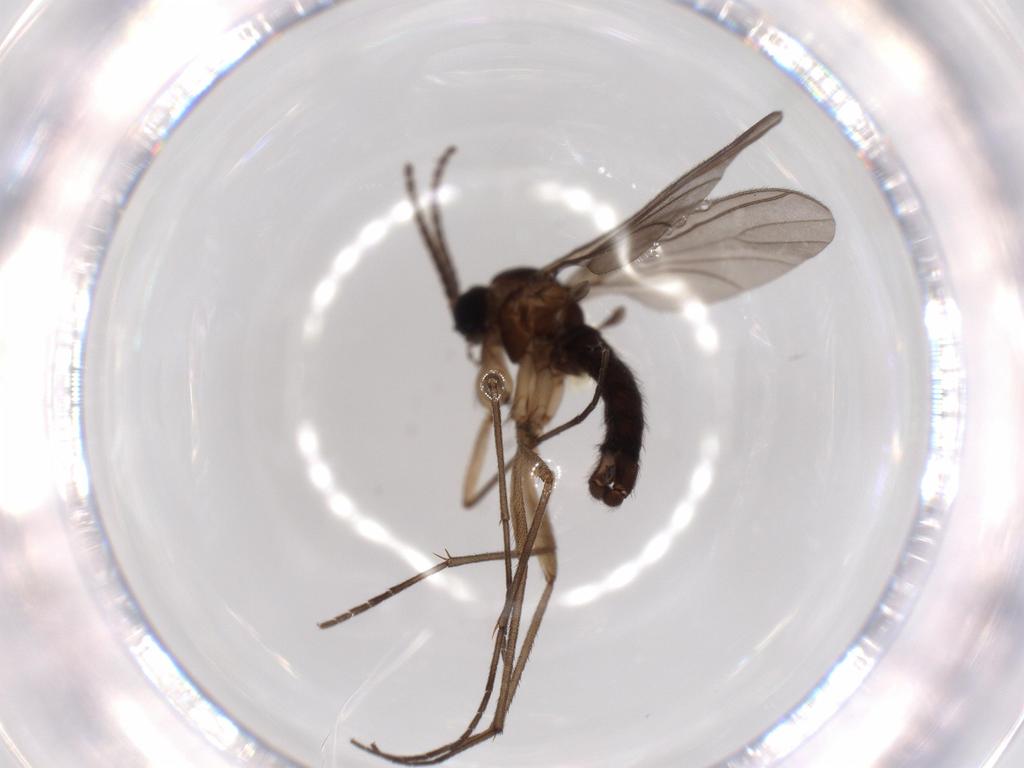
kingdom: Animalia
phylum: Arthropoda
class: Insecta
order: Diptera
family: Sciaridae
